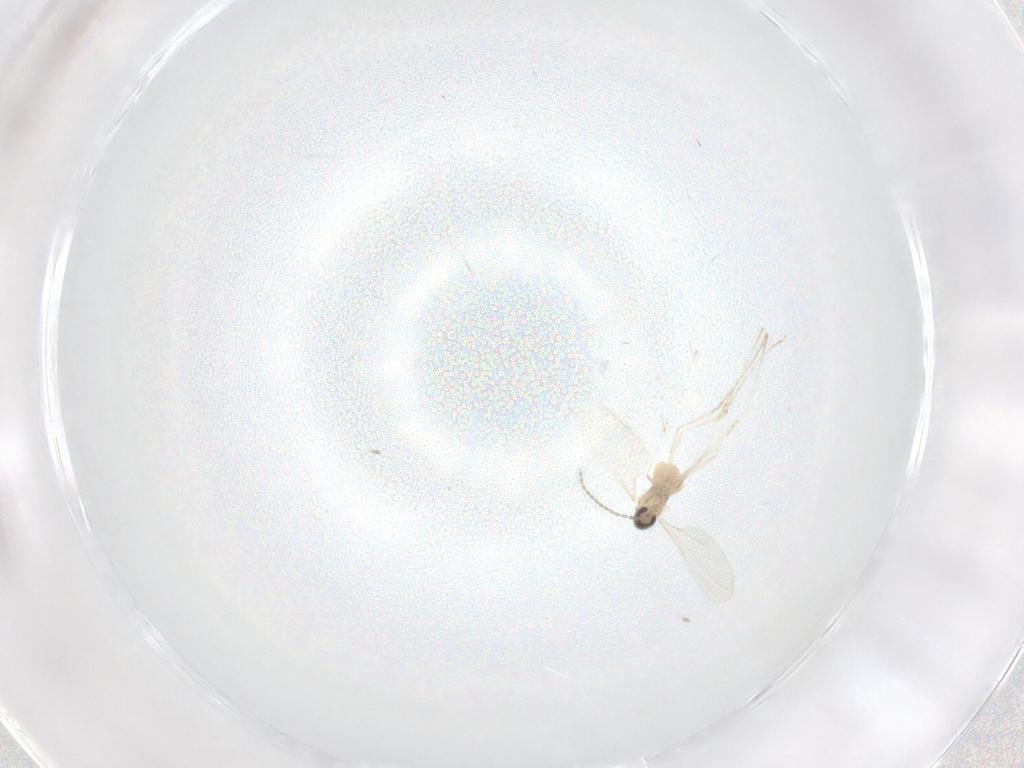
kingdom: Animalia
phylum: Arthropoda
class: Insecta
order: Diptera
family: Cecidomyiidae
